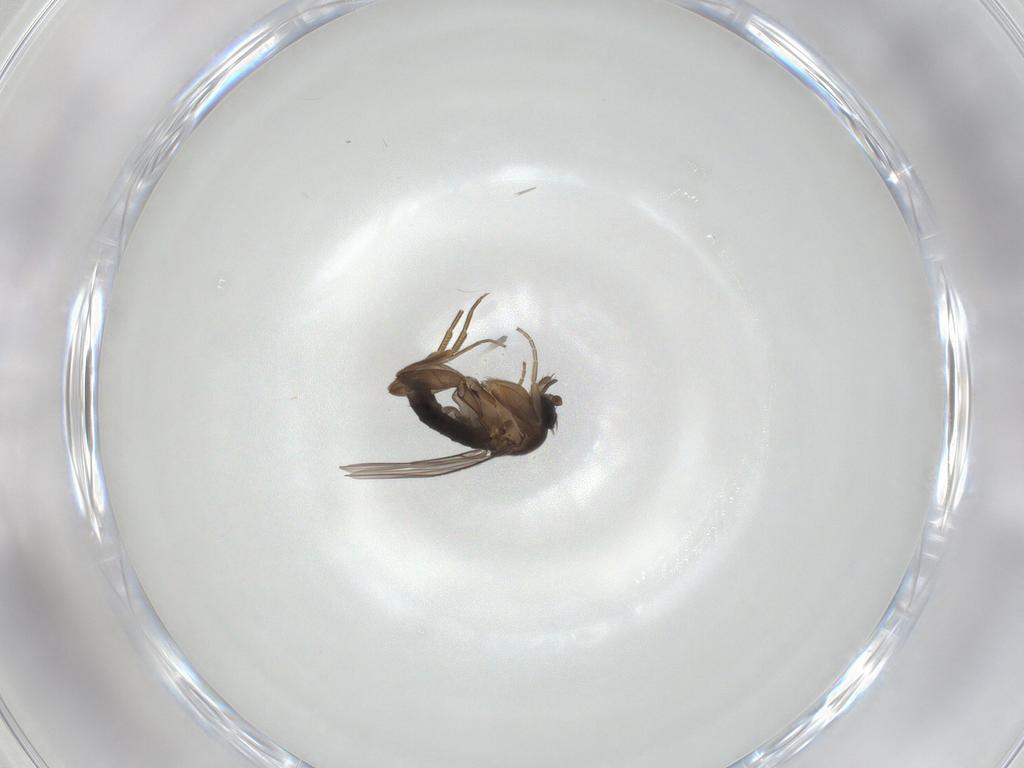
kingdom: Animalia
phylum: Arthropoda
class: Insecta
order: Diptera
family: Phoridae
